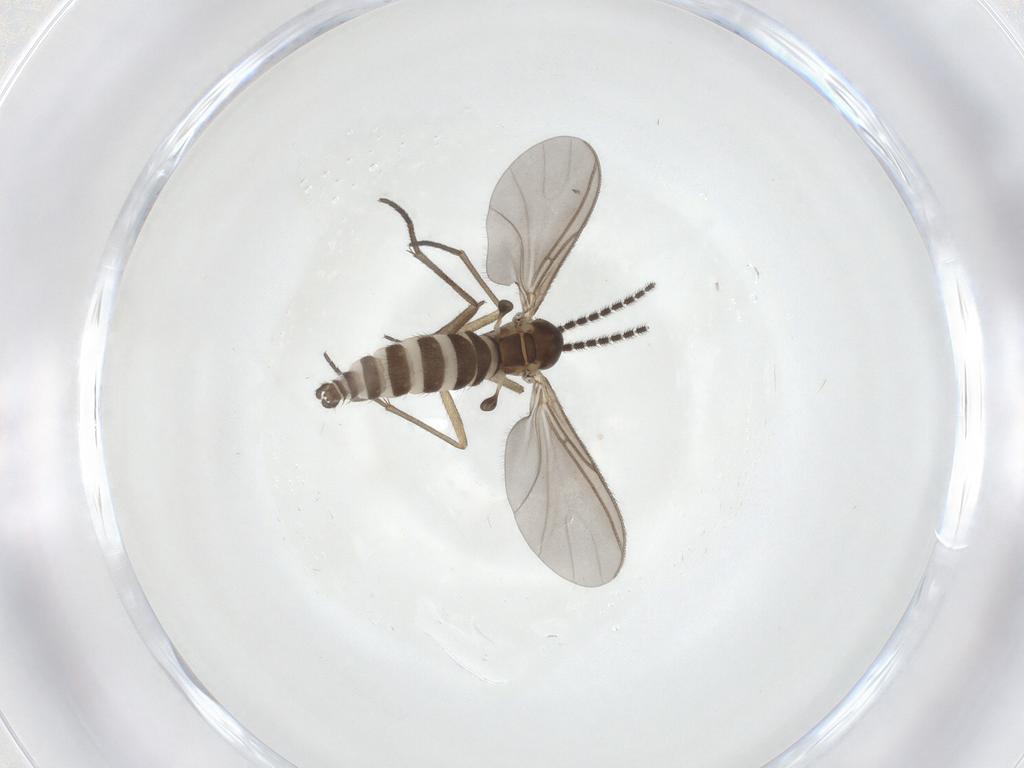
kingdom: Animalia
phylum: Arthropoda
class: Insecta
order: Diptera
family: Sciaridae
